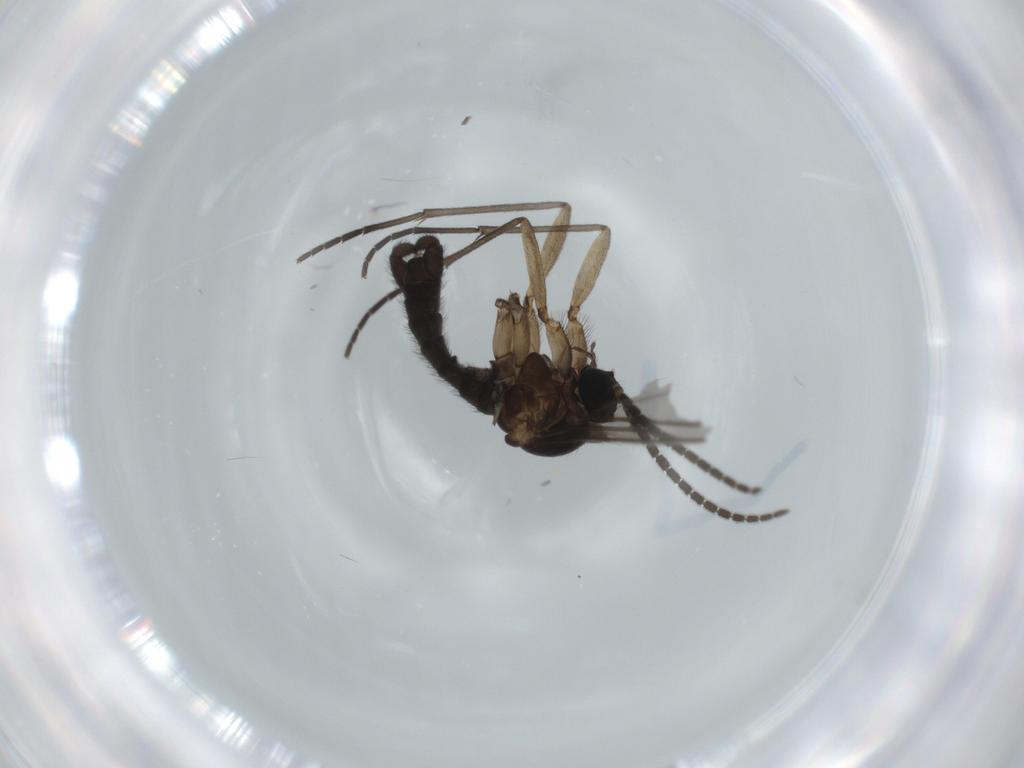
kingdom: Animalia
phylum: Arthropoda
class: Insecta
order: Diptera
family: Sciaridae
